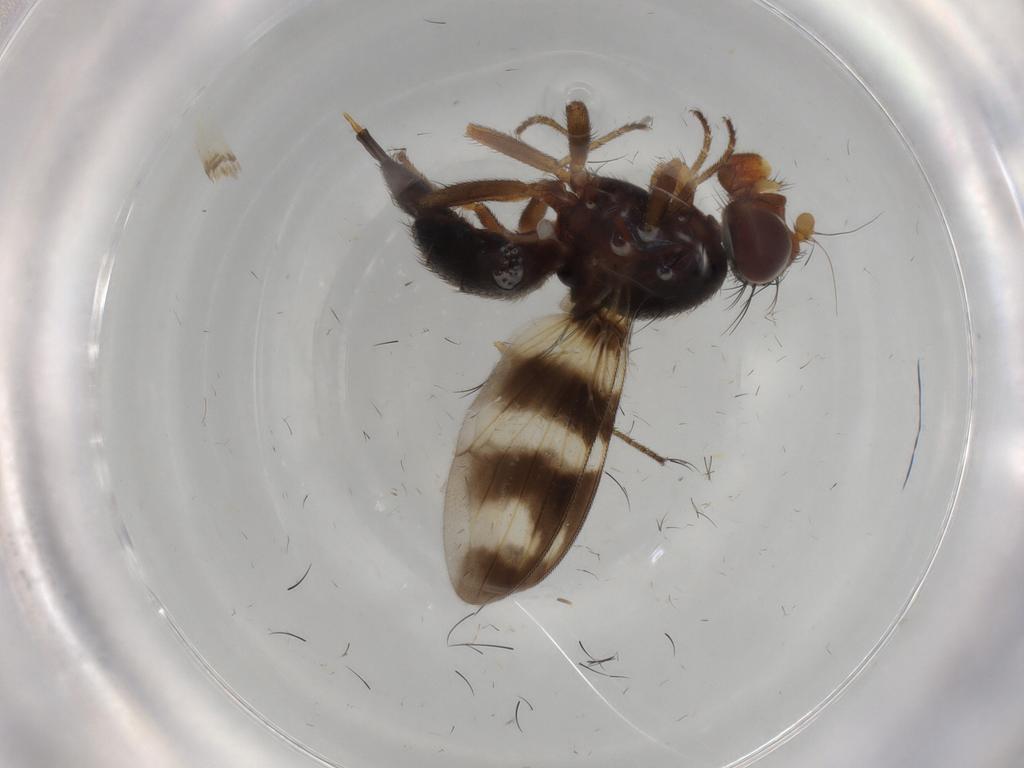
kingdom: Animalia
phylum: Arthropoda
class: Insecta
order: Diptera
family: Ulidiidae
